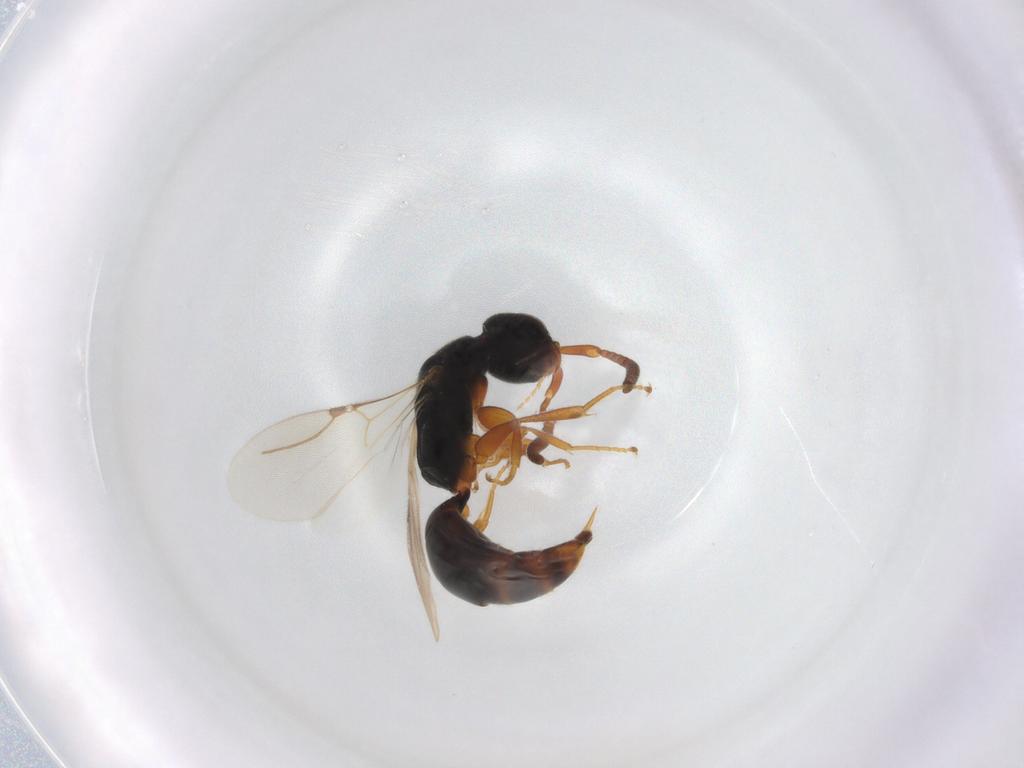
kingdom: Animalia
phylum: Arthropoda
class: Insecta
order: Hymenoptera
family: Bethylidae
